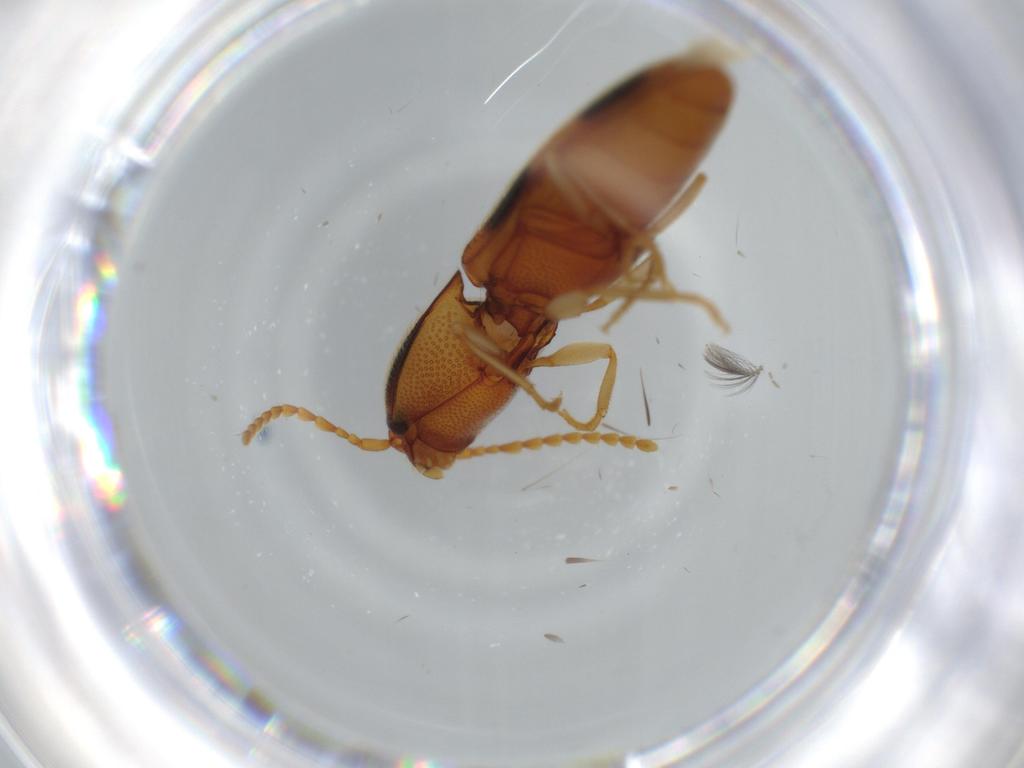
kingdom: Animalia
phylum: Arthropoda
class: Insecta
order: Coleoptera
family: Elateridae
